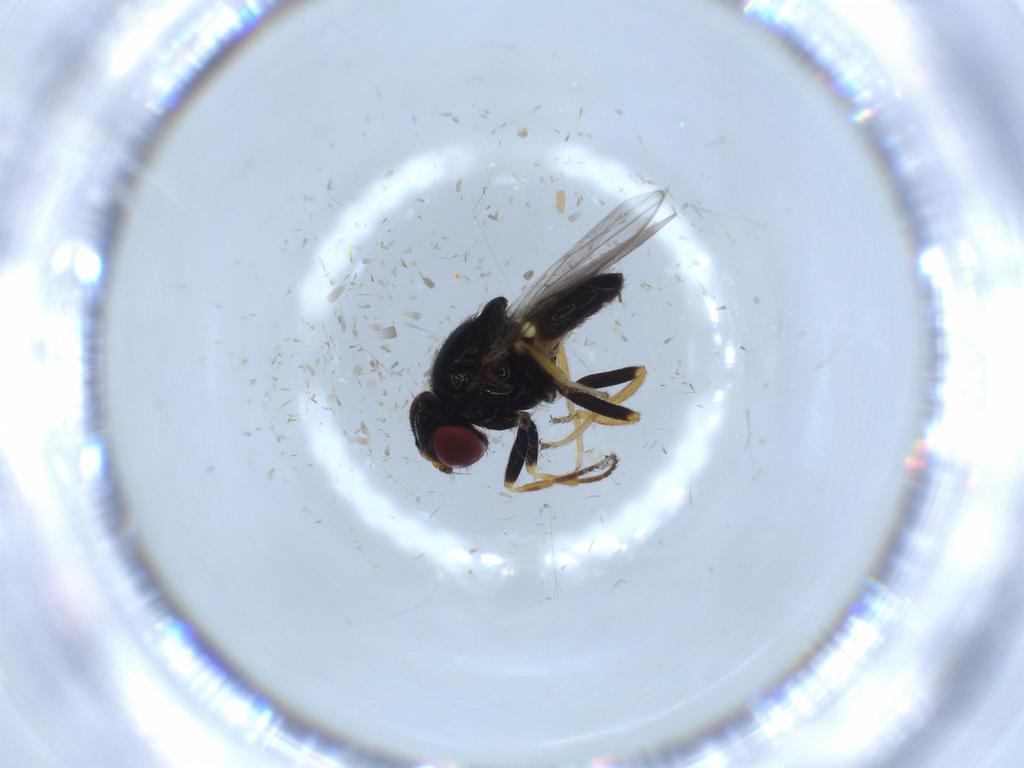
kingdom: Animalia
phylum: Arthropoda
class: Insecta
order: Diptera
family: Chloropidae
